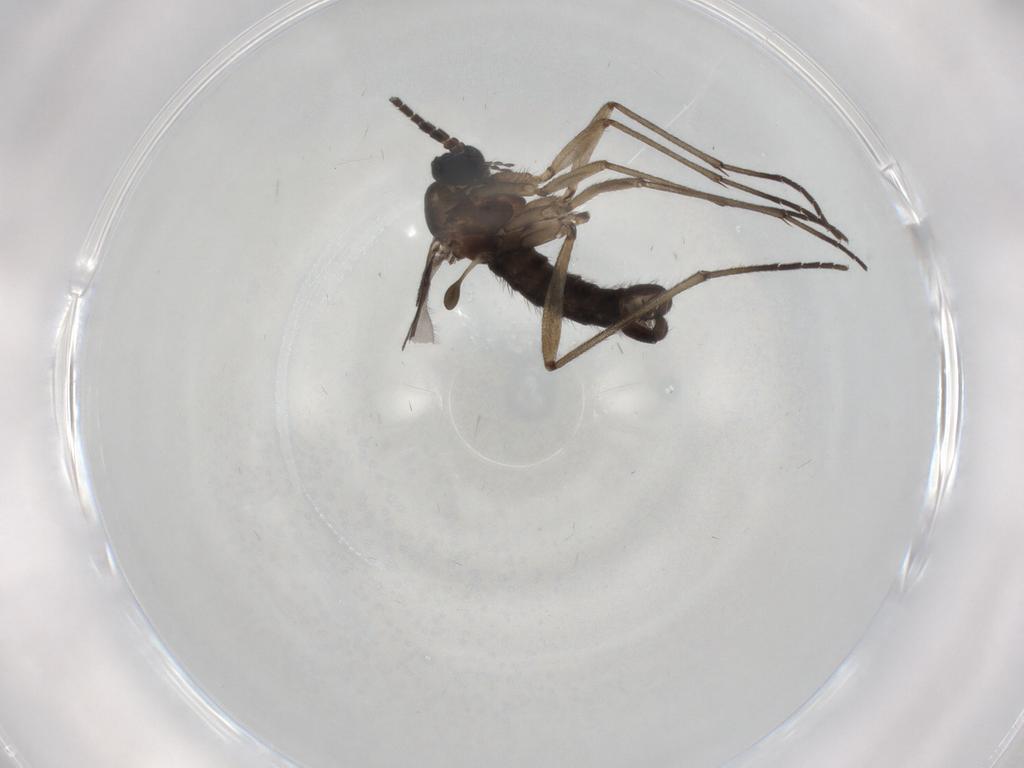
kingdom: Animalia
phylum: Arthropoda
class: Insecta
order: Diptera
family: Sciaridae
